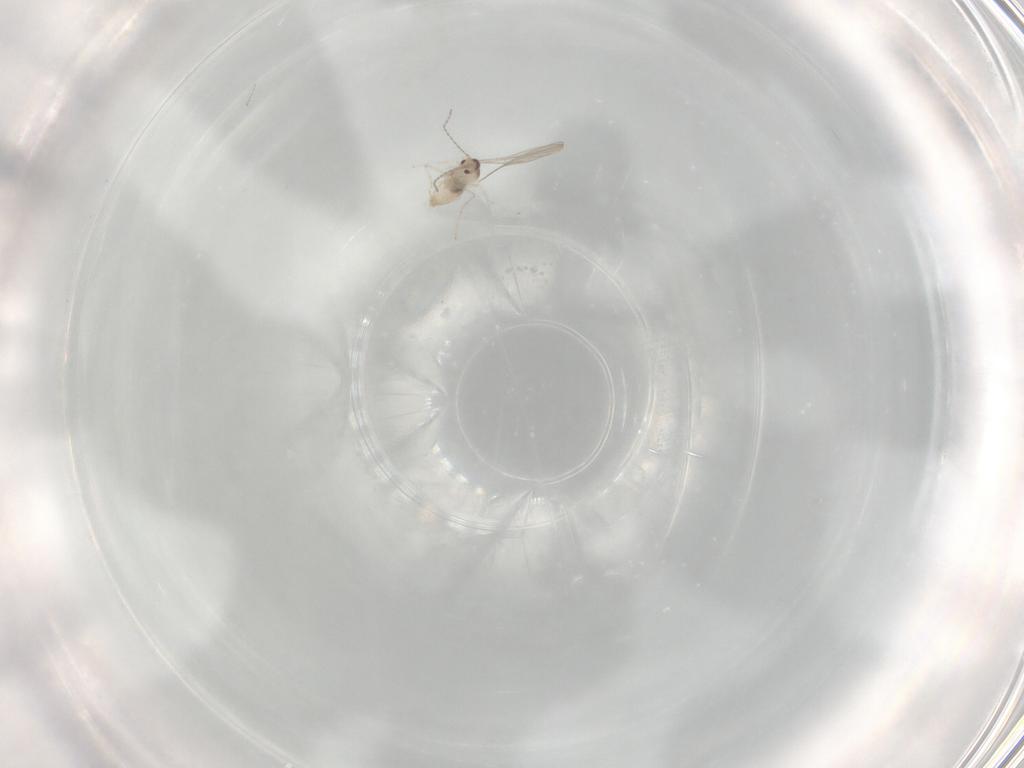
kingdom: Animalia
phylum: Arthropoda
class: Insecta
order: Diptera
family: Cecidomyiidae
